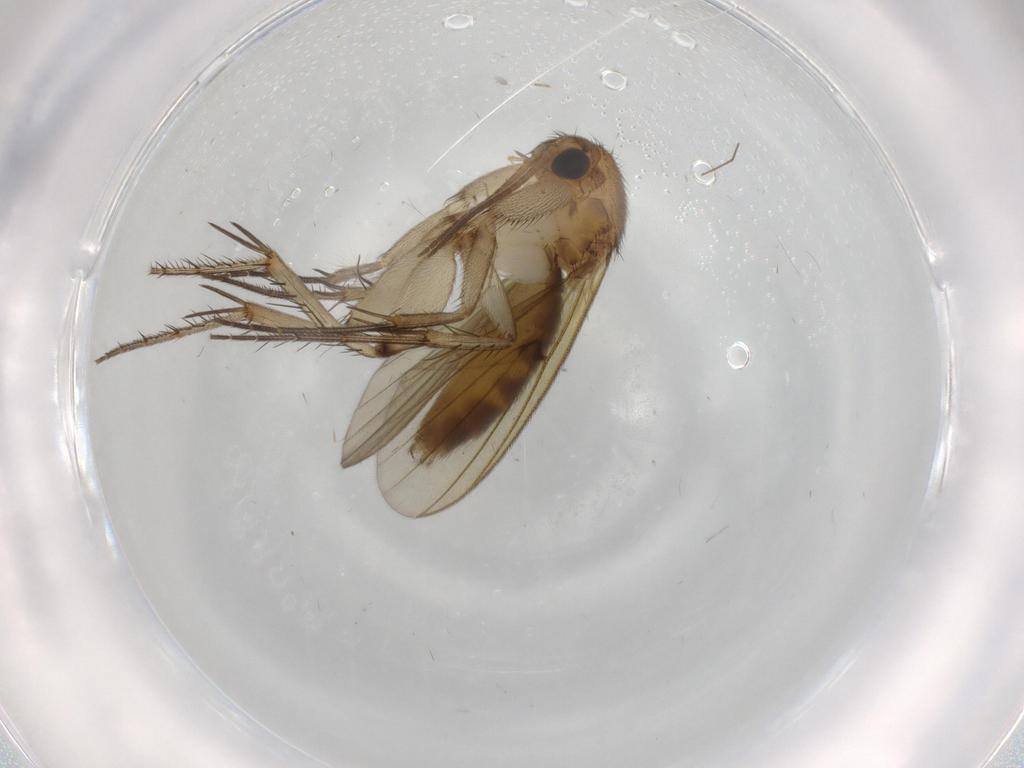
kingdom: Animalia
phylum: Arthropoda
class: Insecta
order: Diptera
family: Mycetophilidae
